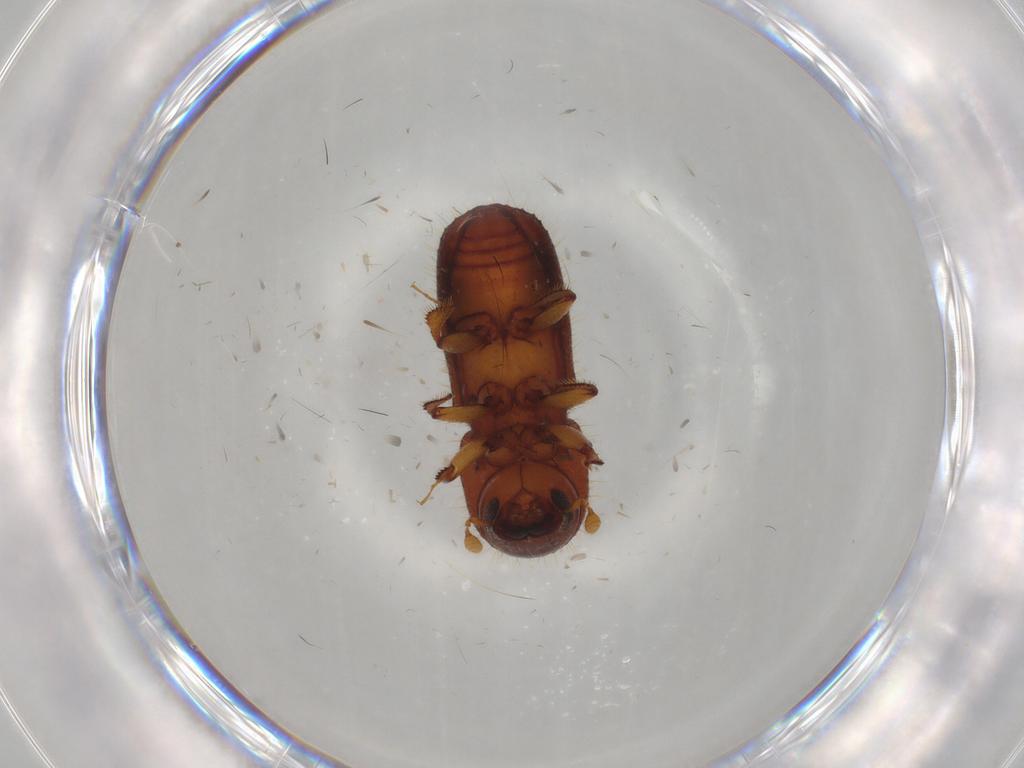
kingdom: Animalia
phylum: Arthropoda
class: Insecta
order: Coleoptera
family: Curculionidae
